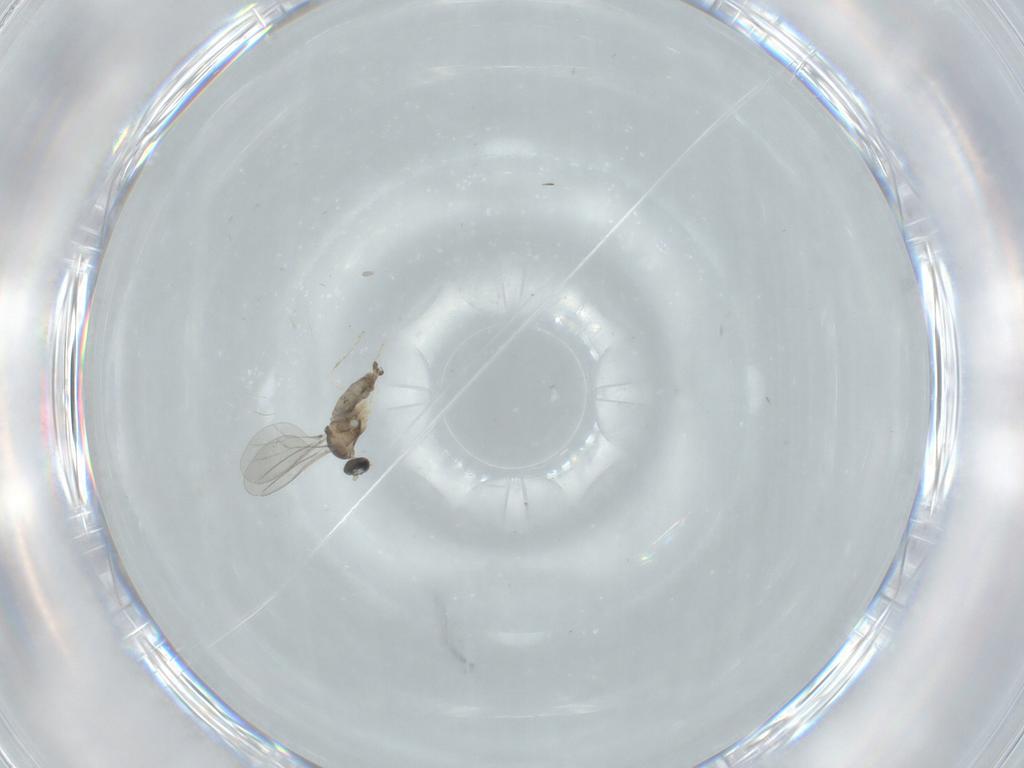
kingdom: Animalia
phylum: Arthropoda
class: Insecta
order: Diptera
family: Cecidomyiidae
